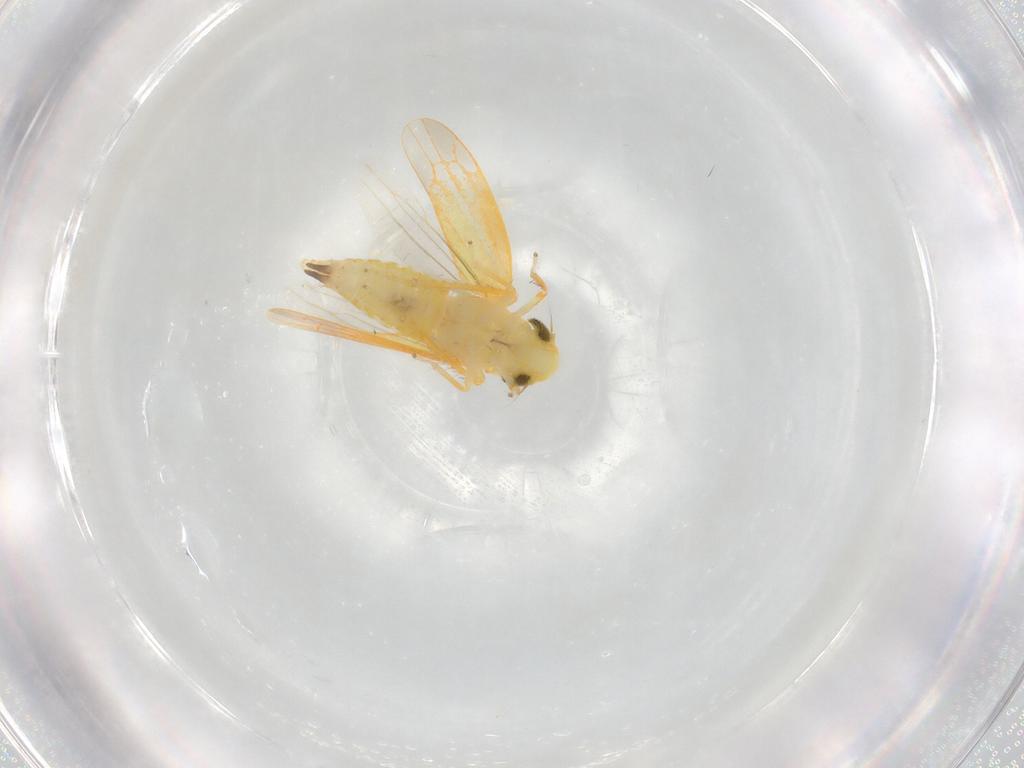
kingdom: Animalia
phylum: Arthropoda
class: Insecta
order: Hemiptera
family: Cicadellidae
